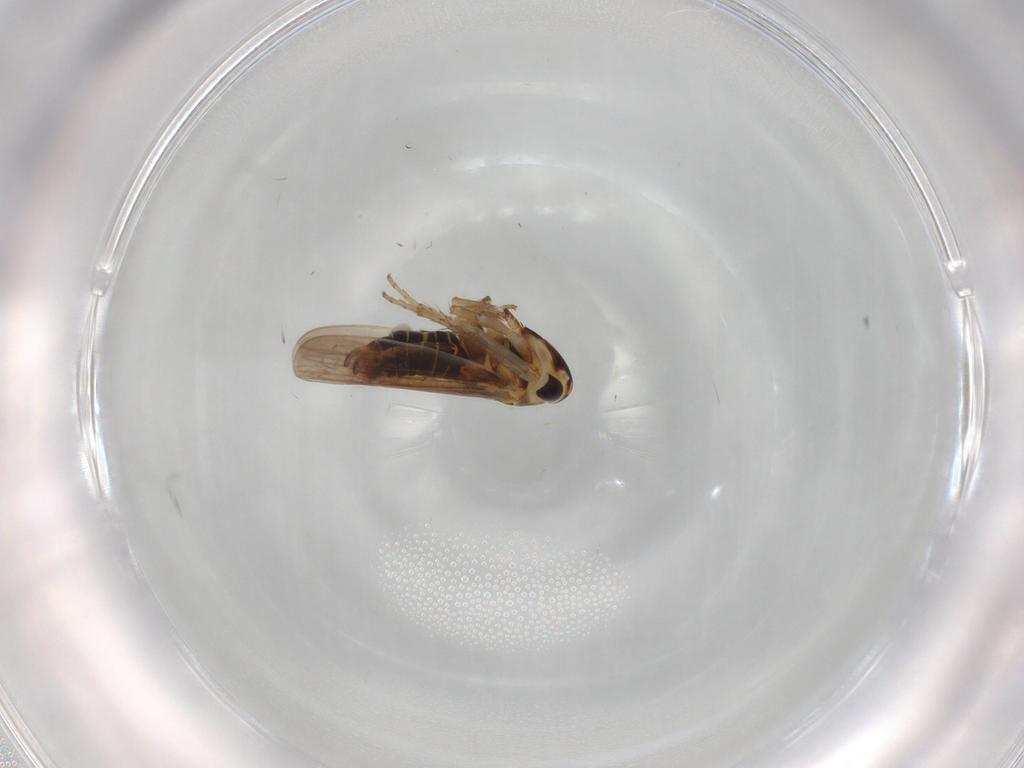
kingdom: Animalia
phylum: Arthropoda
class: Insecta
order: Hemiptera
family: Cicadellidae
